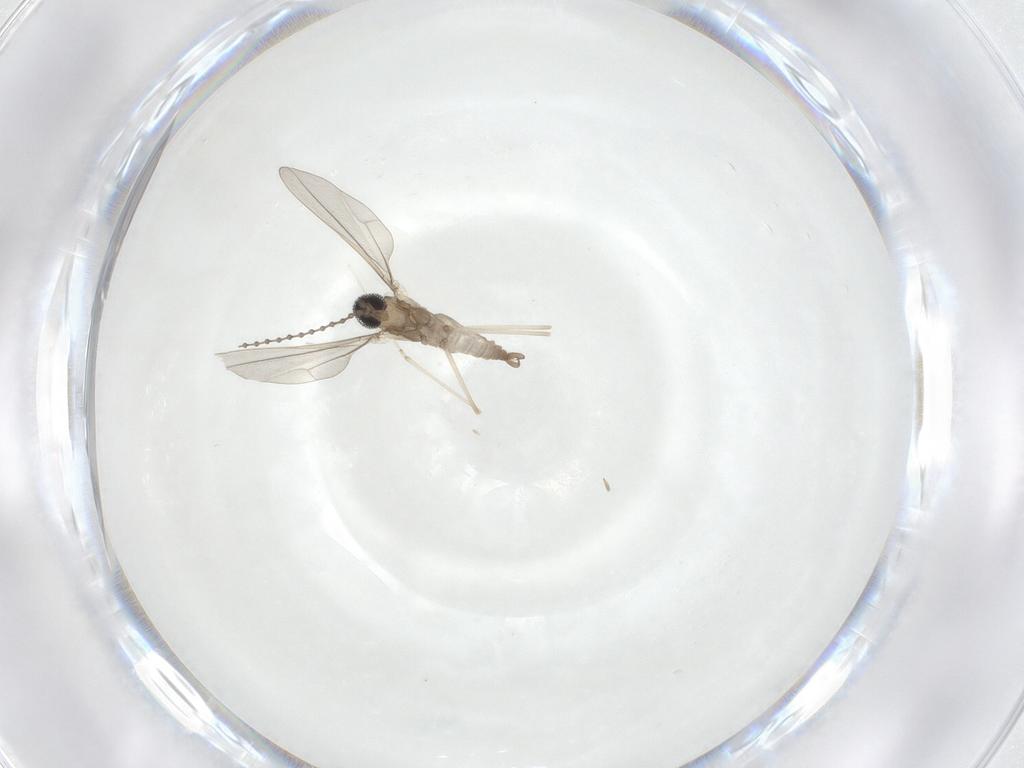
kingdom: Animalia
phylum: Arthropoda
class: Insecta
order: Diptera
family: Cecidomyiidae
